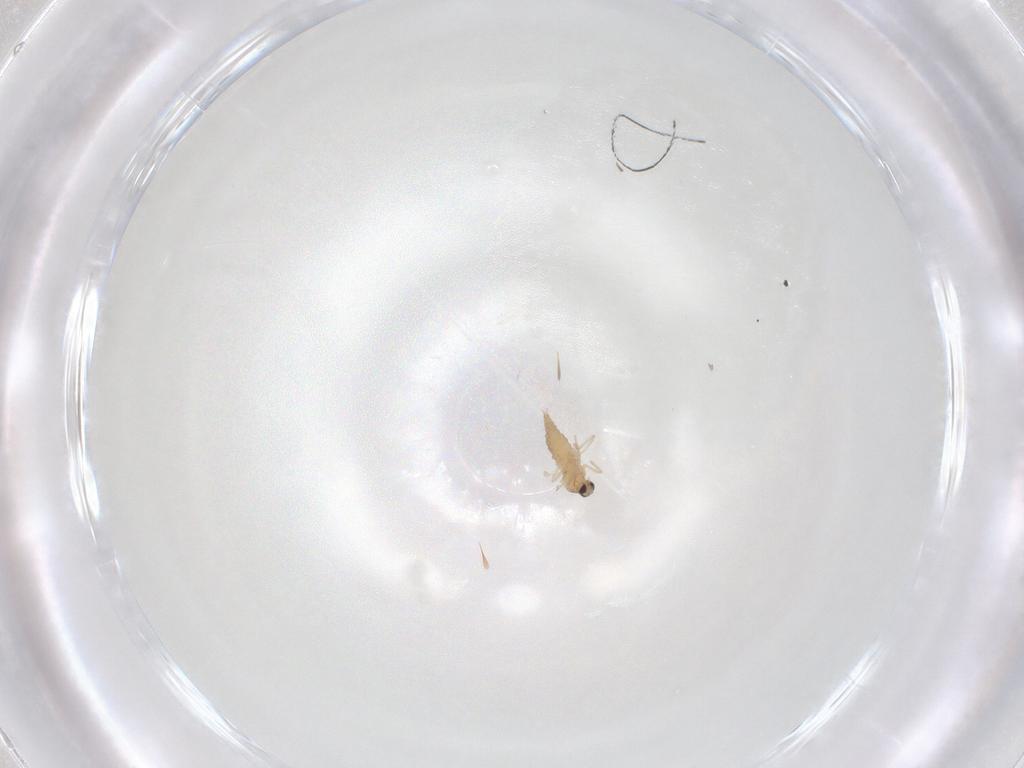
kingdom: Animalia
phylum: Arthropoda
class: Insecta
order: Diptera
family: Cecidomyiidae
